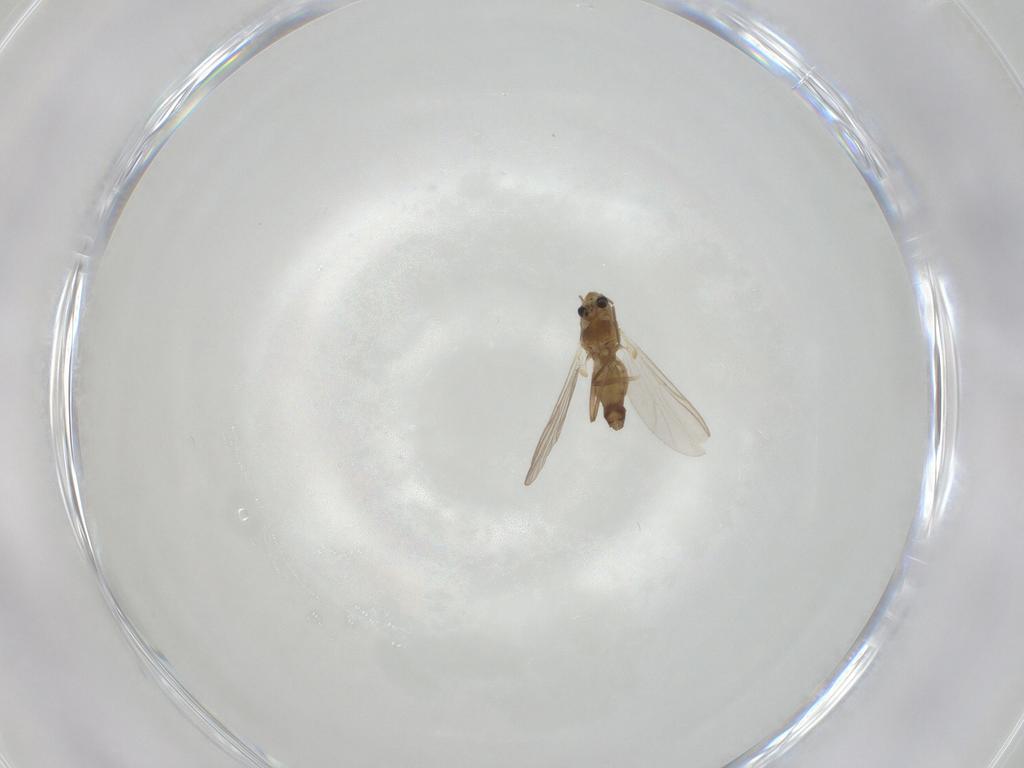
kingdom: Animalia
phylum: Arthropoda
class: Insecta
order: Diptera
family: Chironomidae
